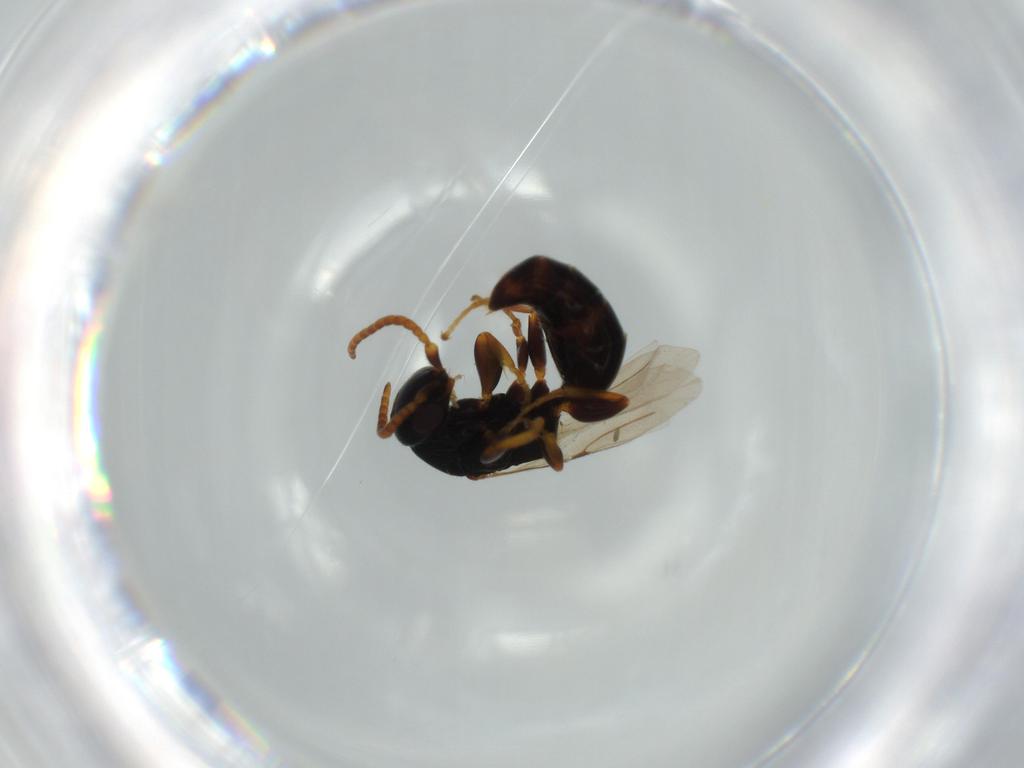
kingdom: Animalia
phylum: Arthropoda
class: Insecta
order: Hymenoptera
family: Bethylidae
